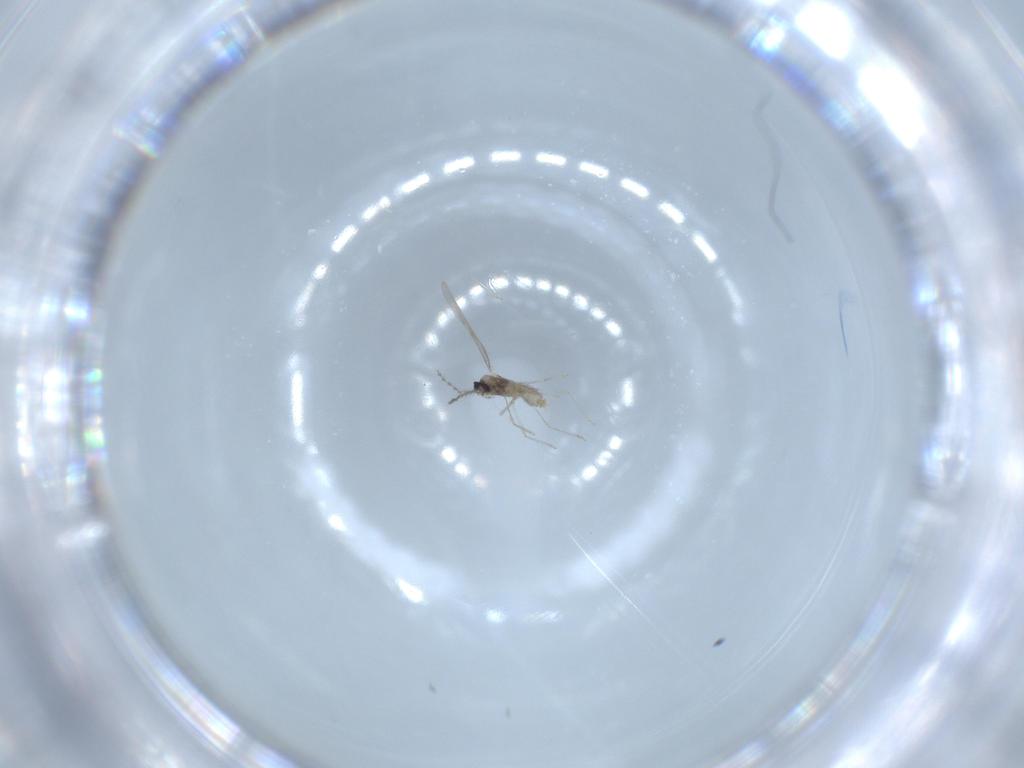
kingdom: Animalia
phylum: Arthropoda
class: Insecta
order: Psocodea
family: Caeciliusidae
